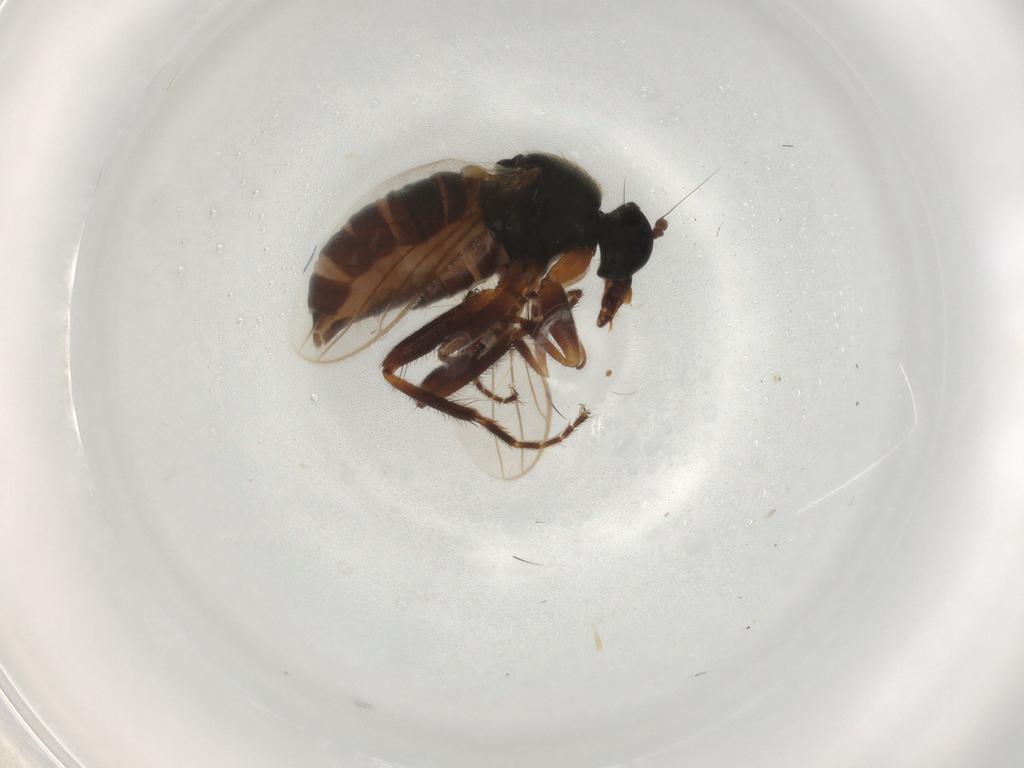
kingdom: Animalia
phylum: Arthropoda
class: Insecta
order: Diptera
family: Hybotidae
